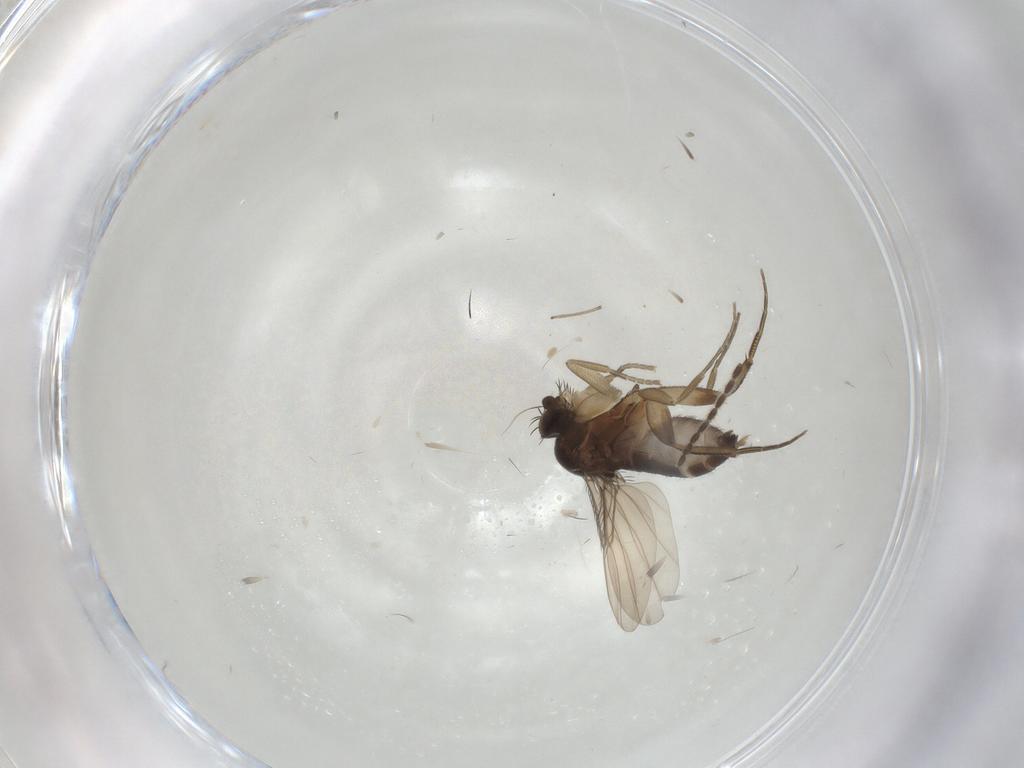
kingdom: Animalia
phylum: Arthropoda
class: Insecta
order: Diptera
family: Phoridae
